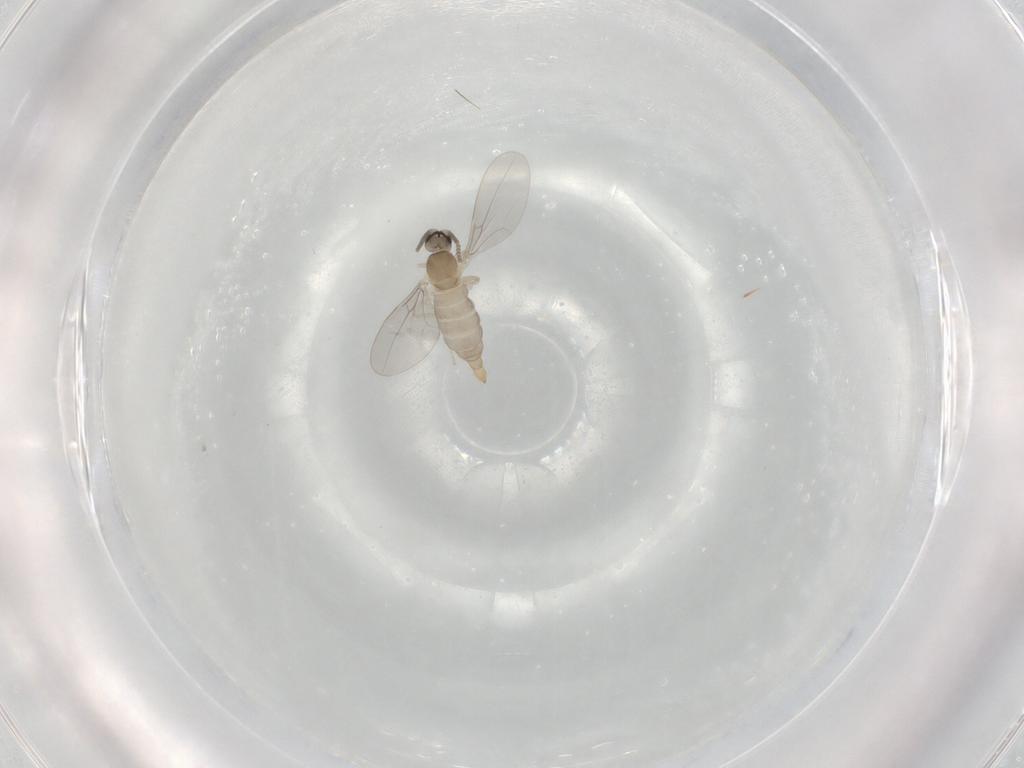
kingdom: Animalia
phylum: Arthropoda
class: Insecta
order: Diptera
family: Cecidomyiidae
